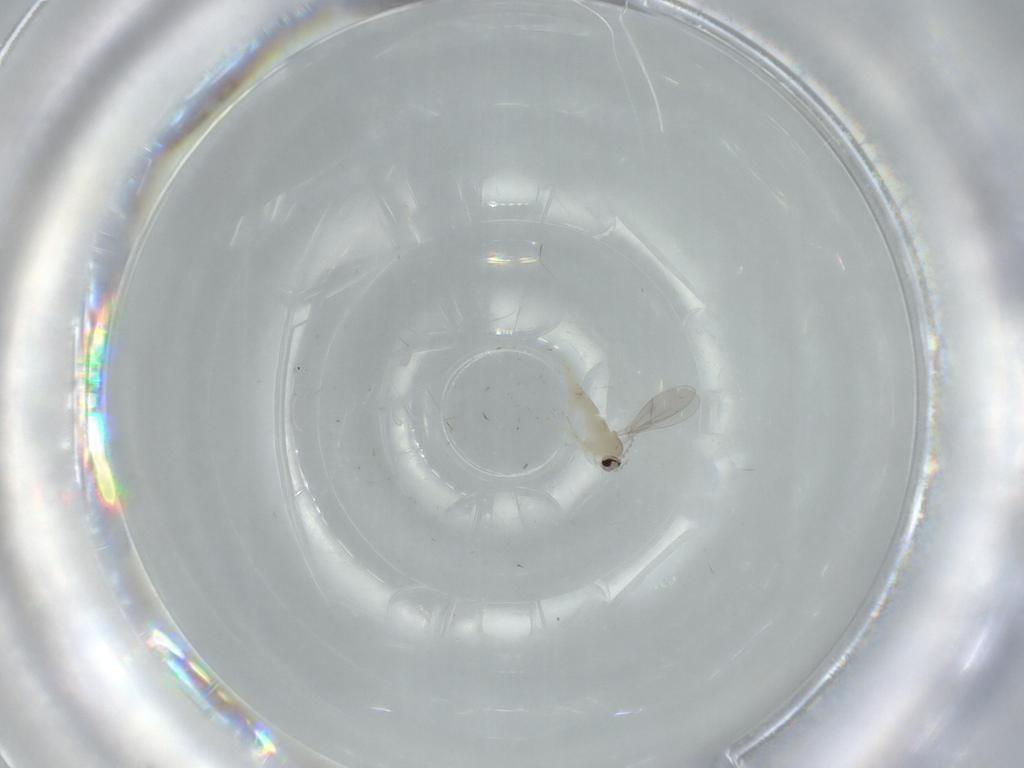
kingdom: Animalia
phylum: Arthropoda
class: Insecta
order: Diptera
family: Cecidomyiidae
